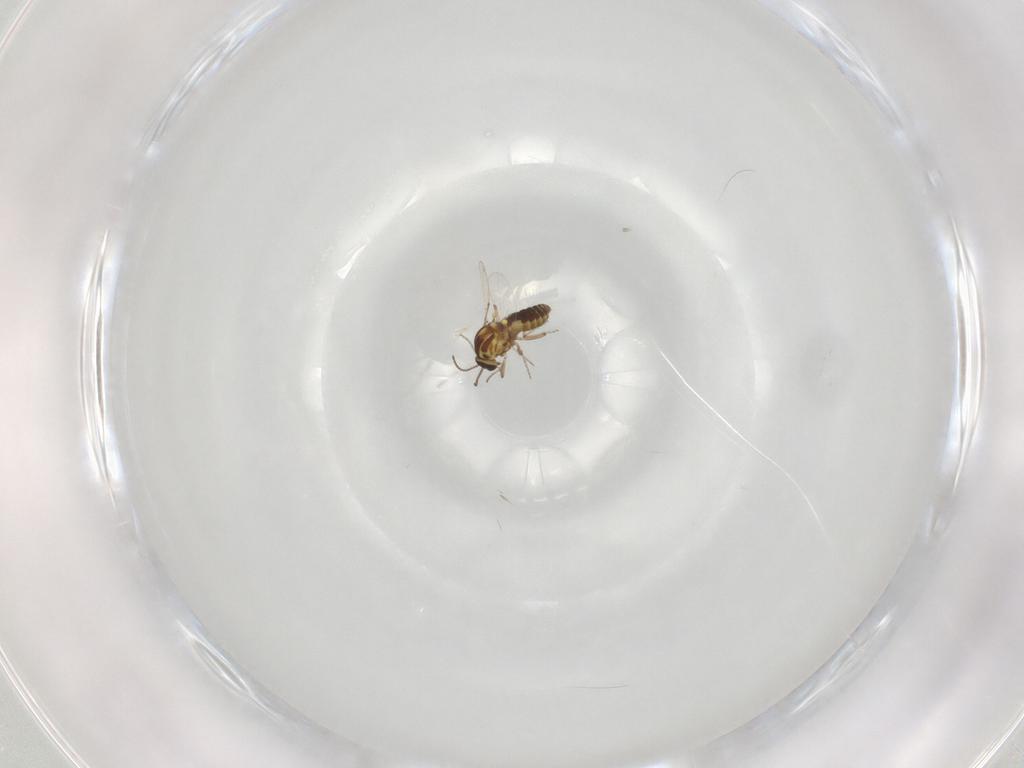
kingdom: Animalia
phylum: Arthropoda
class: Insecta
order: Diptera
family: Ceratopogonidae
